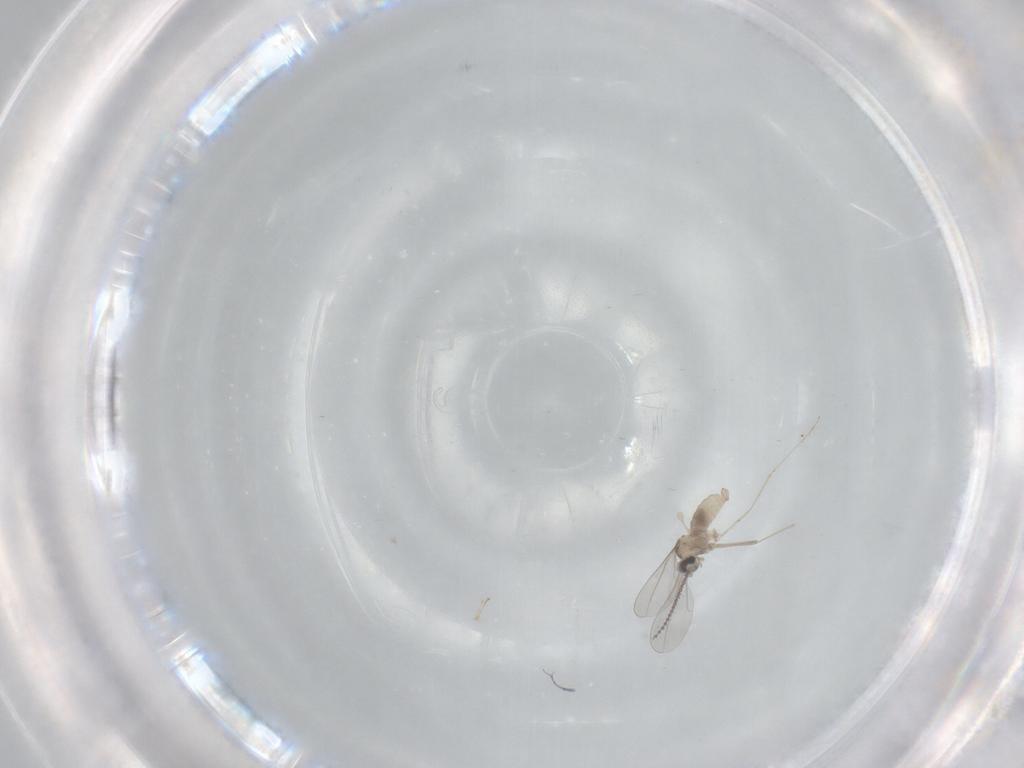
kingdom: Animalia
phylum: Arthropoda
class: Insecta
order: Diptera
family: Cecidomyiidae
